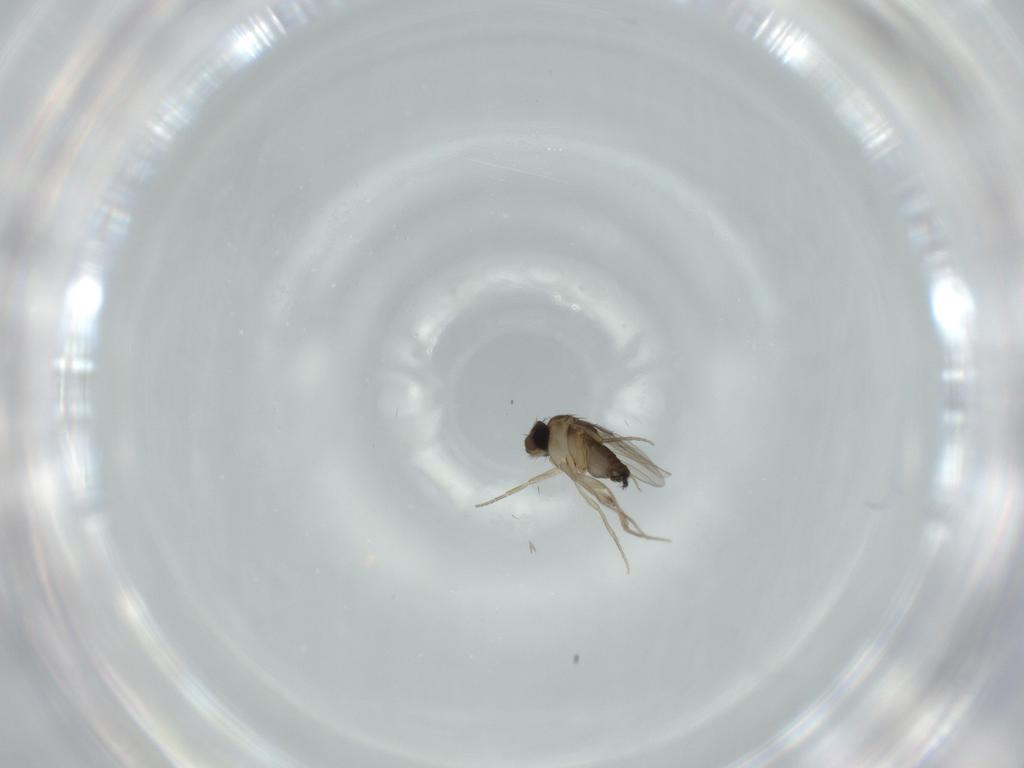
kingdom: Animalia
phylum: Arthropoda
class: Insecta
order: Diptera
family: Phoridae
